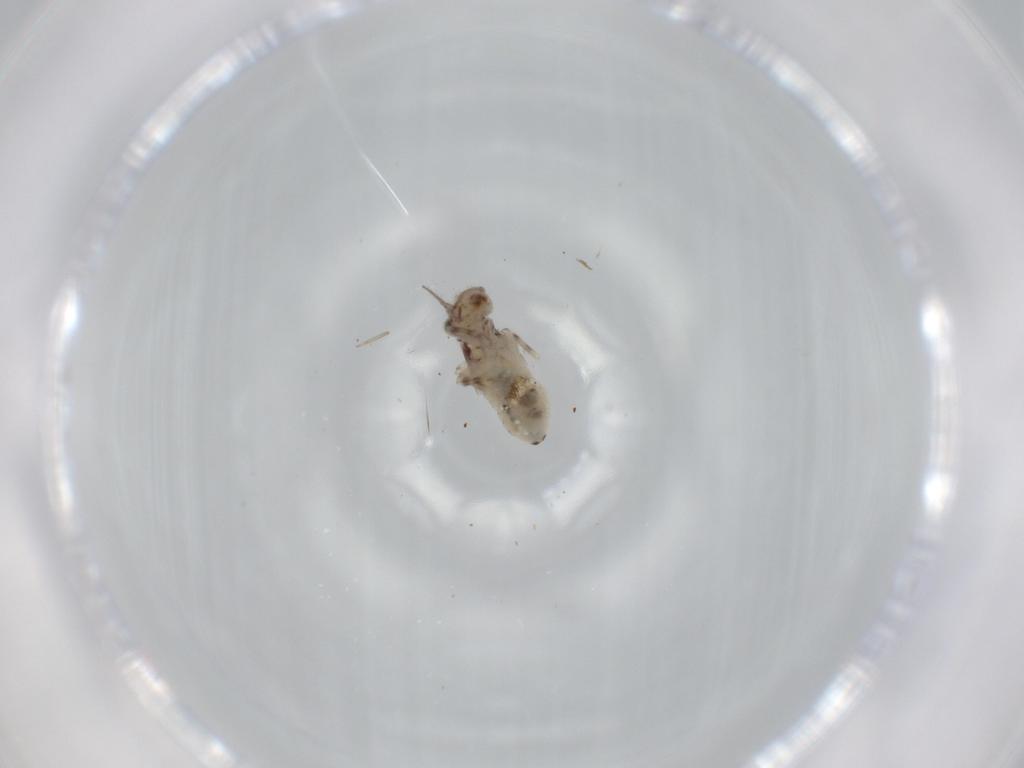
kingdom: Animalia
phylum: Arthropoda
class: Insecta
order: Psocodea
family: Lepidopsocidae
